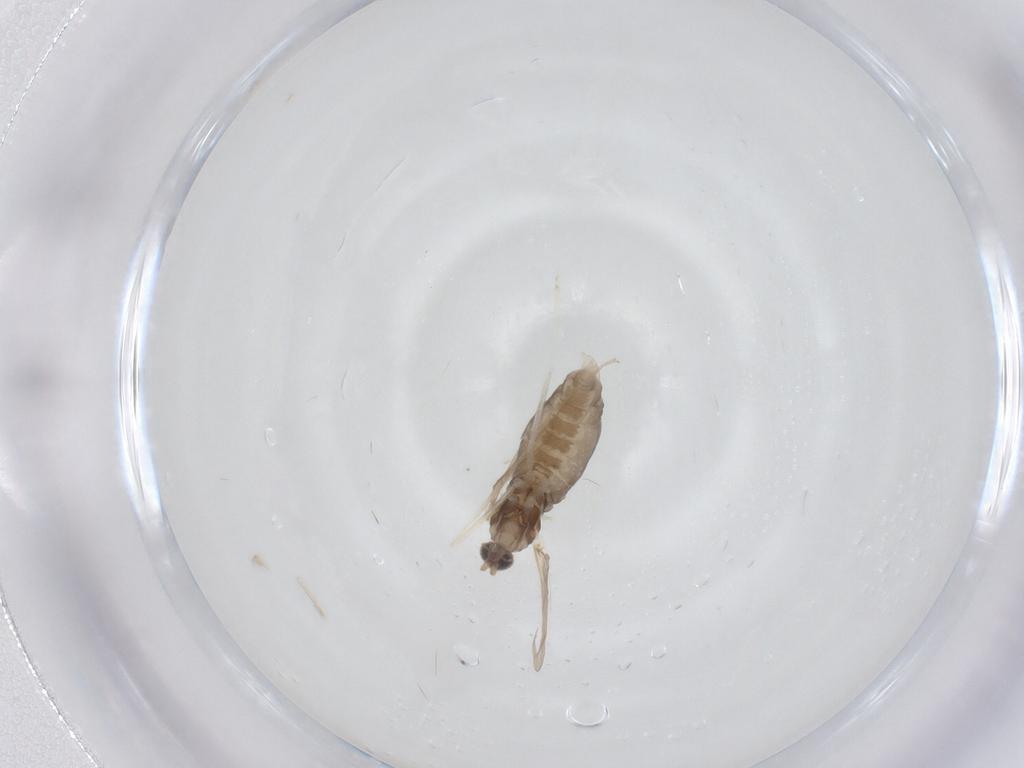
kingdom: Animalia
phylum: Arthropoda
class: Insecta
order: Diptera
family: Cecidomyiidae
